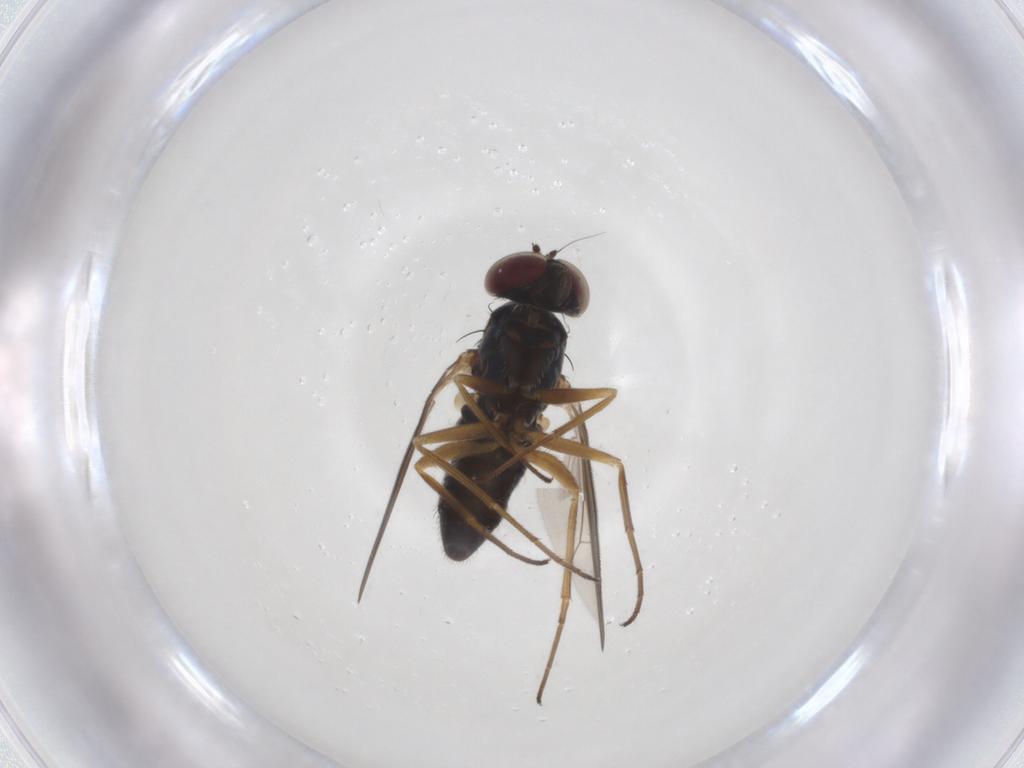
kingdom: Animalia
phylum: Arthropoda
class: Insecta
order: Diptera
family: Dolichopodidae
